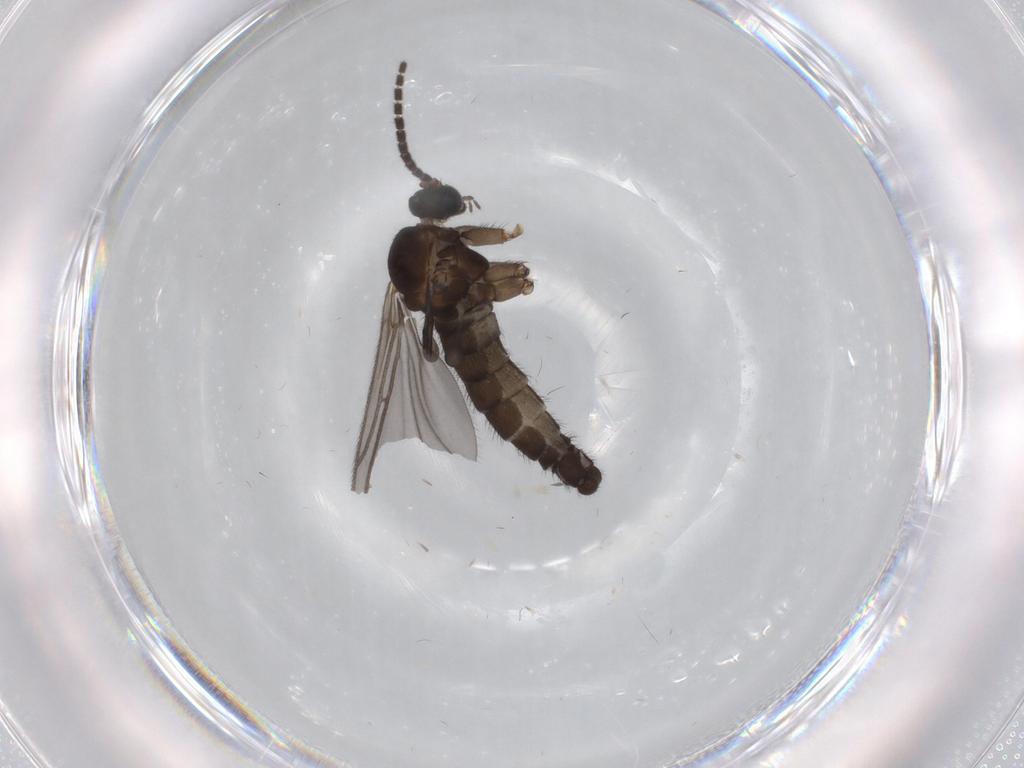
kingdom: Animalia
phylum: Arthropoda
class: Insecta
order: Diptera
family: Sciaridae
